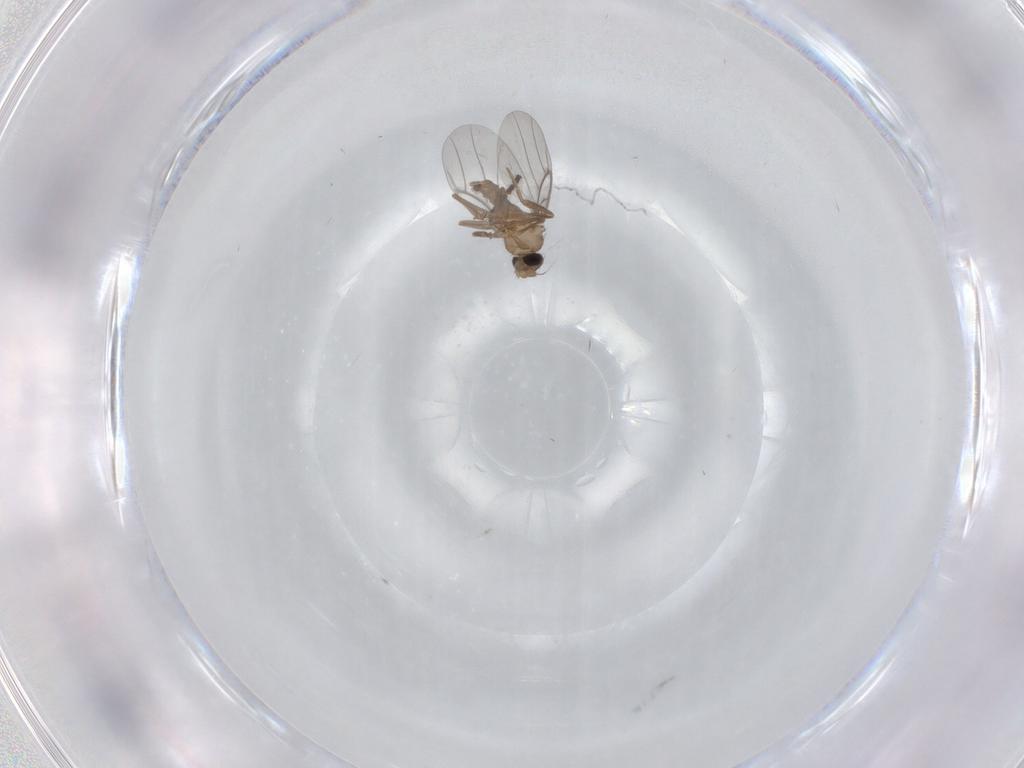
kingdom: Animalia
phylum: Arthropoda
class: Insecta
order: Diptera
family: Sciaridae
